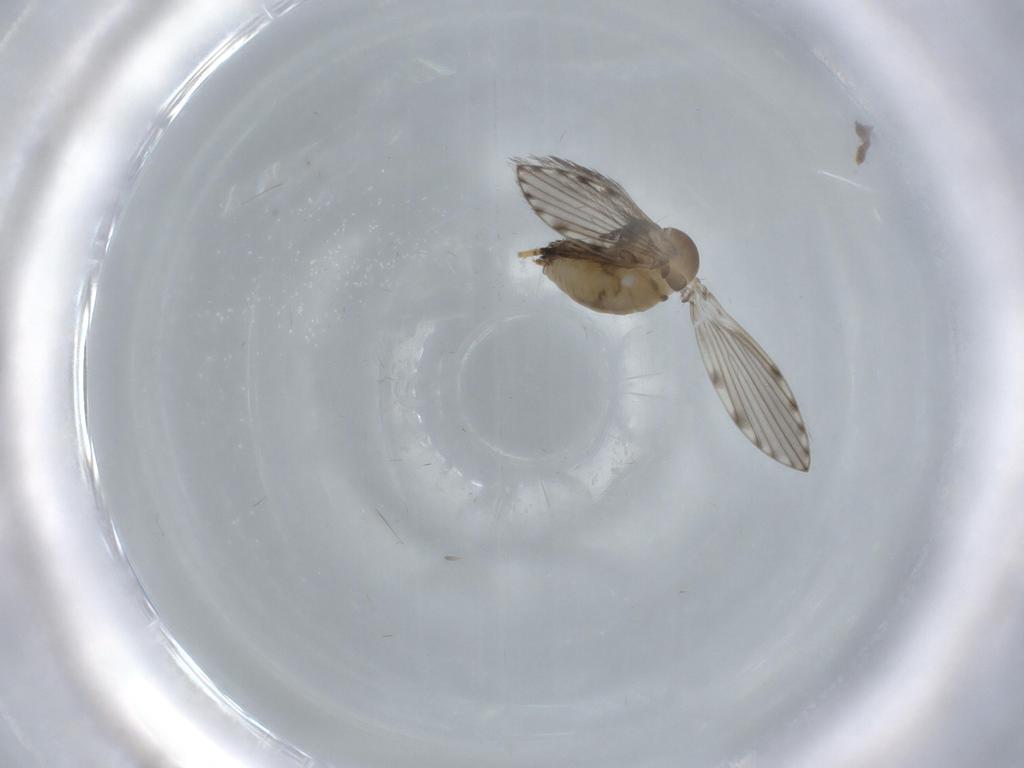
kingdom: Animalia
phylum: Arthropoda
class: Insecta
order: Diptera
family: Psychodidae
